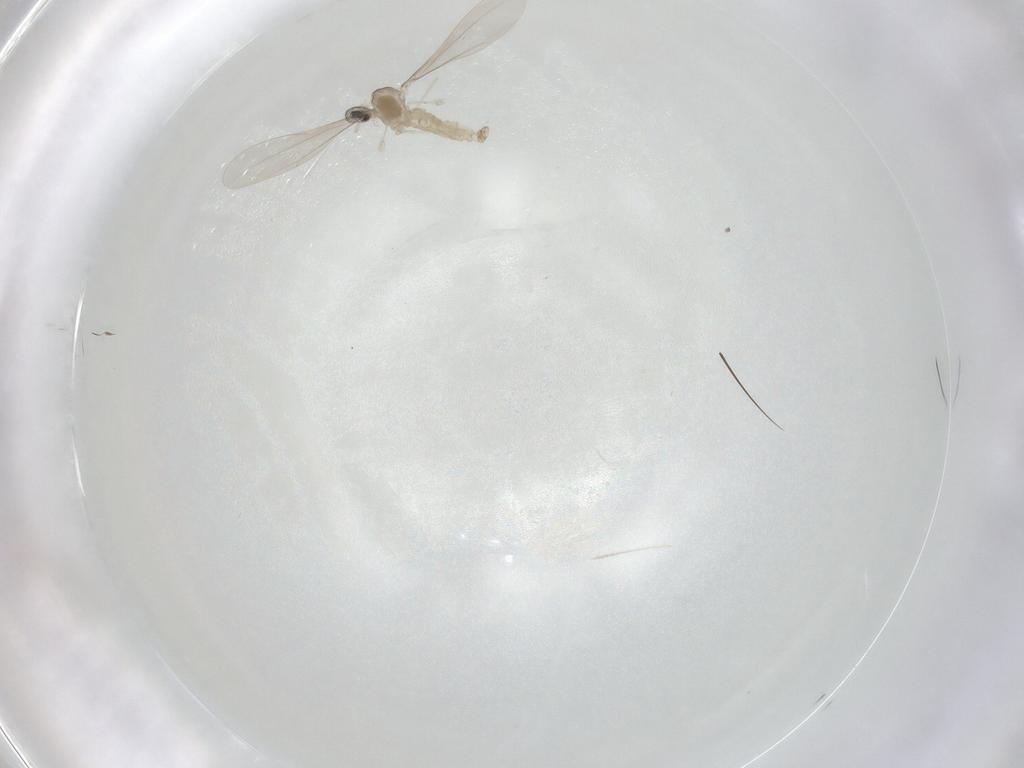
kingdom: Animalia
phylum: Arthropoda
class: Insecta
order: Diptera
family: Cecidomyiidae
